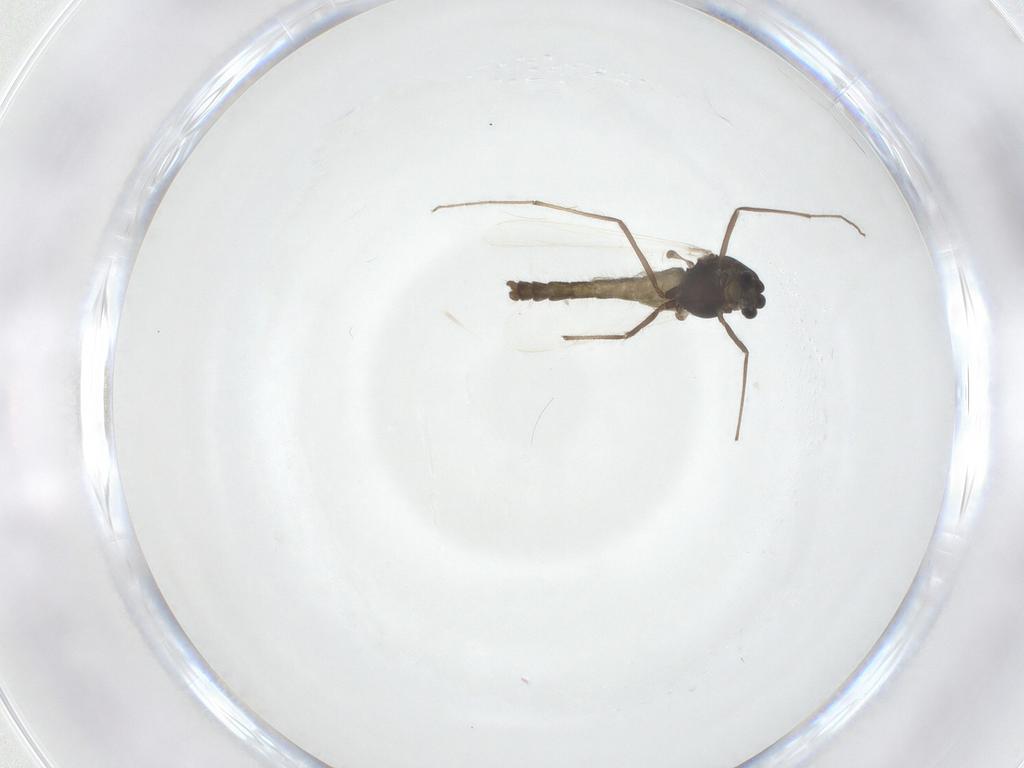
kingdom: Animalia
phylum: Arthropoda
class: Insecta
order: Diptera
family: Chironomidae
